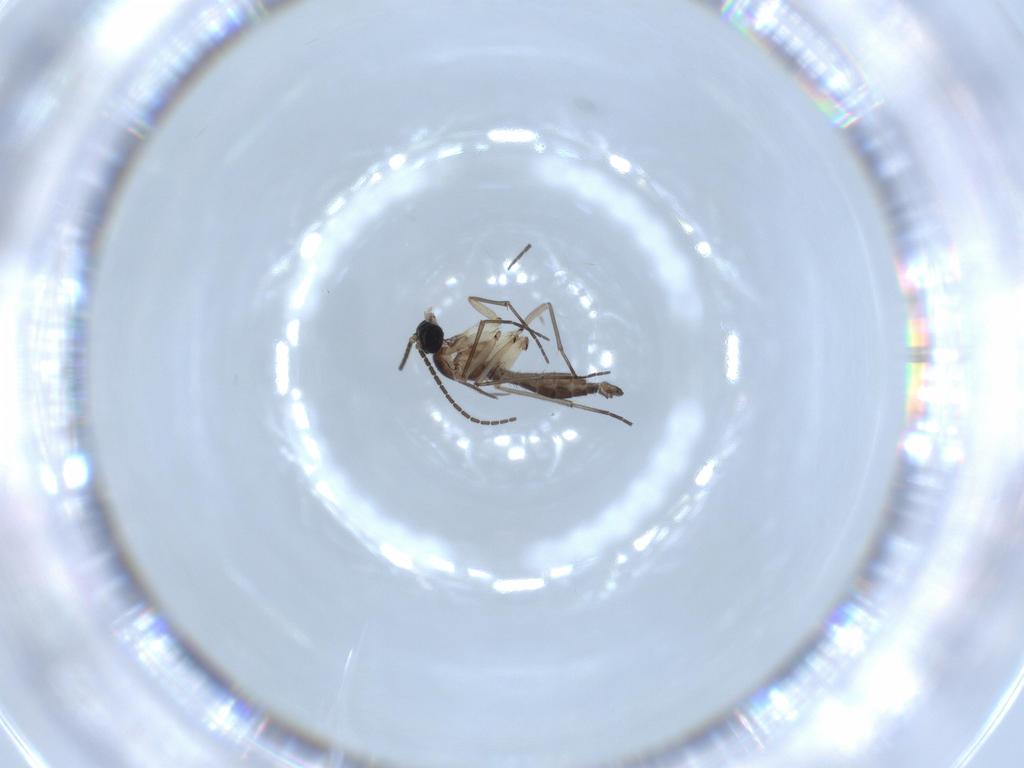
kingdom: Animalia
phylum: Arthropoda
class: Insecta
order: Diptera
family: Sciaridae
